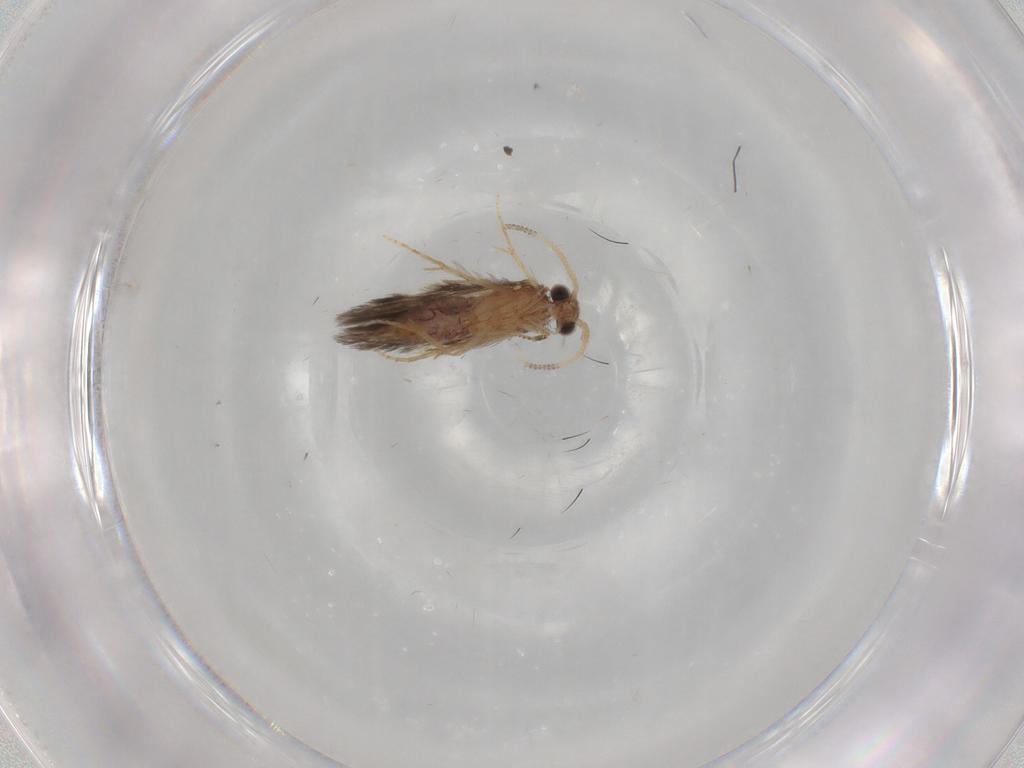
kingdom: Animalia
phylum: Arthropoda
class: Insecta
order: Trichoptera
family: Hydroptilidae
